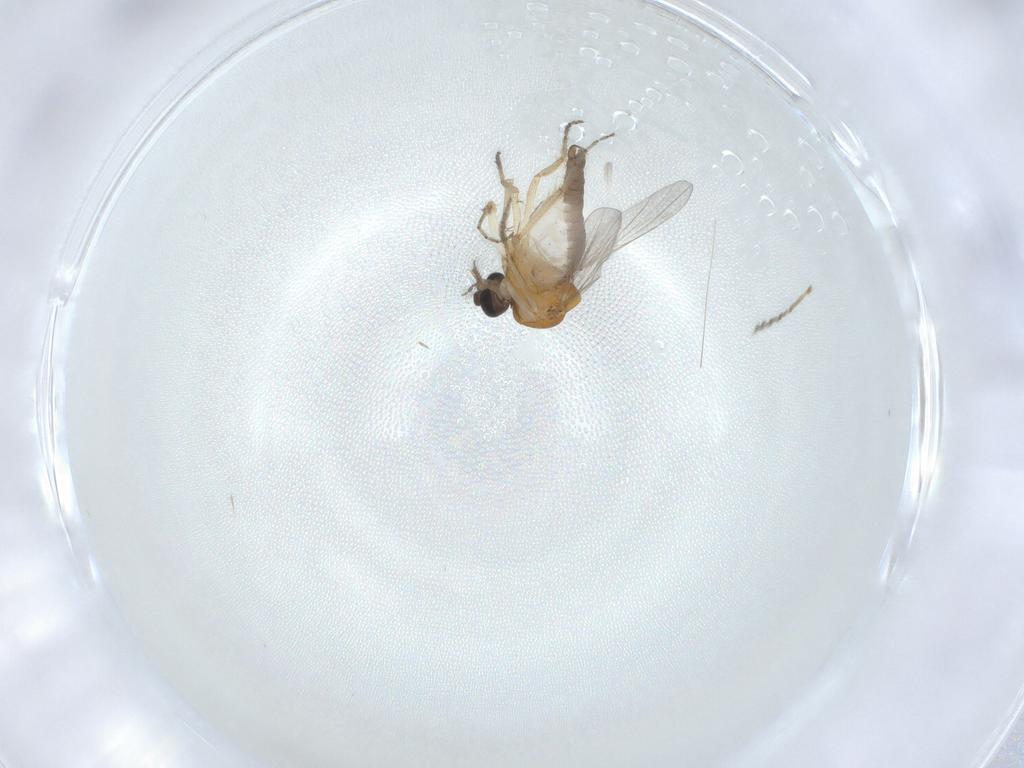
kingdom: Animalia
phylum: Arthropoda
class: Insecta
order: Diptera
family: Ceratopogonidae
